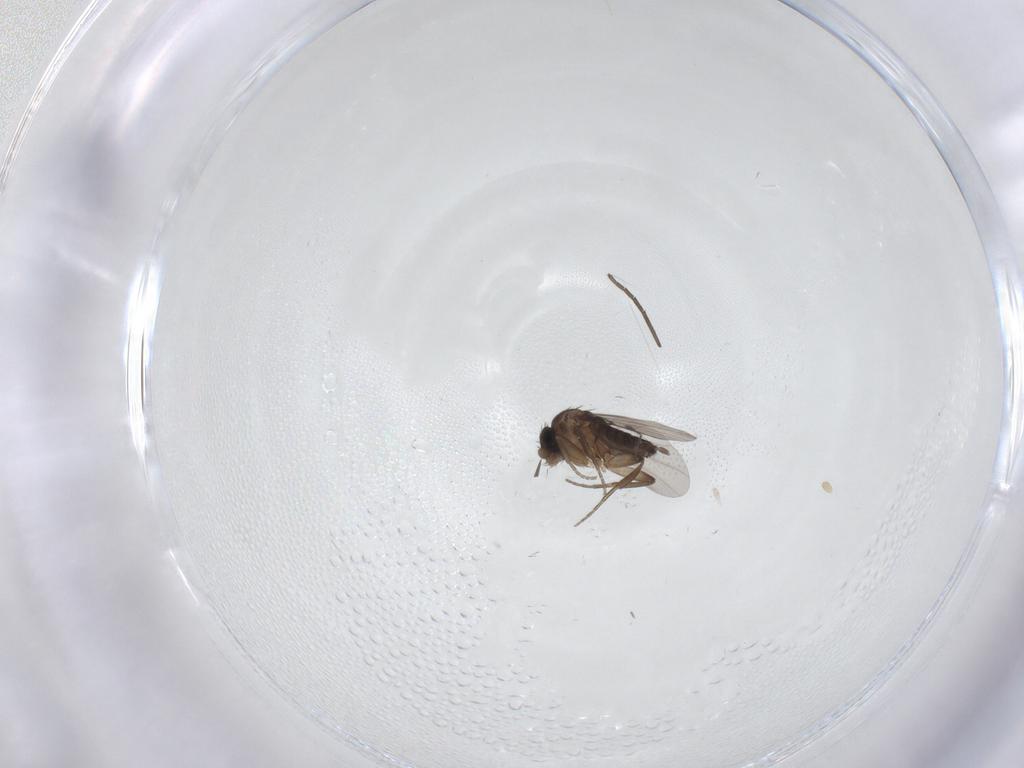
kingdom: Animalia
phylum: Arthropoda
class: Insecta
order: Diptera
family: Phoridae
